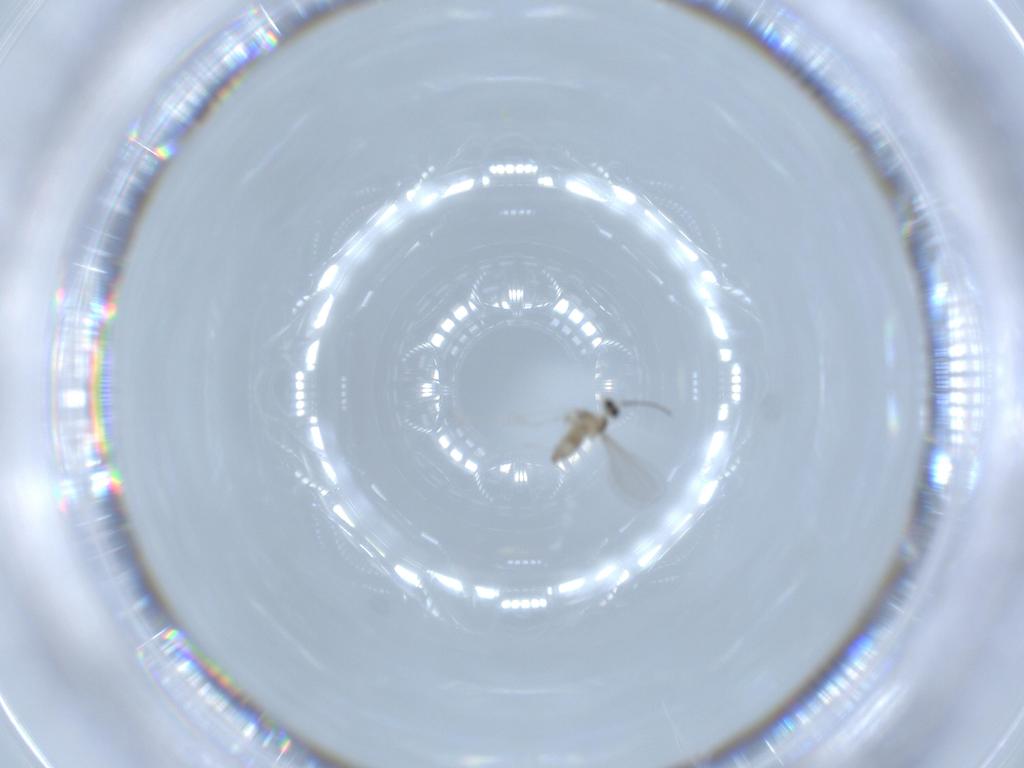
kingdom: Animalia
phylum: Arthropoda
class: Insecta
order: Diptera
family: Cecidomyiidae
